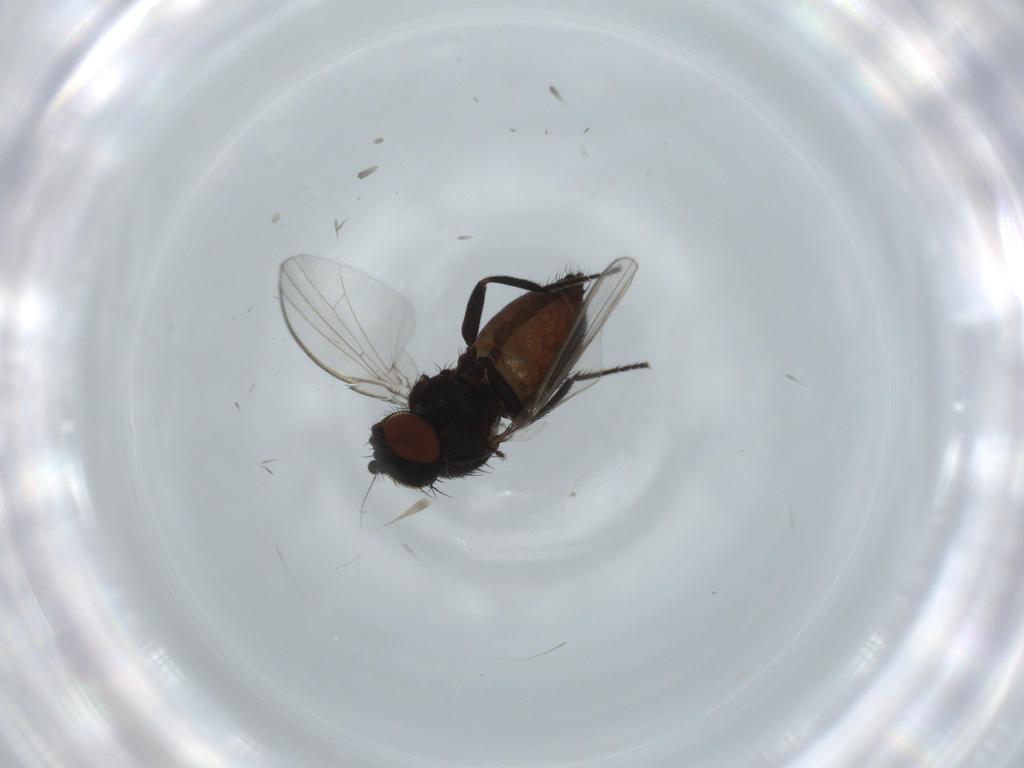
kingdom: Animalia
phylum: Arthropoda
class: Insecta
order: Diptera
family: Milichiidae
